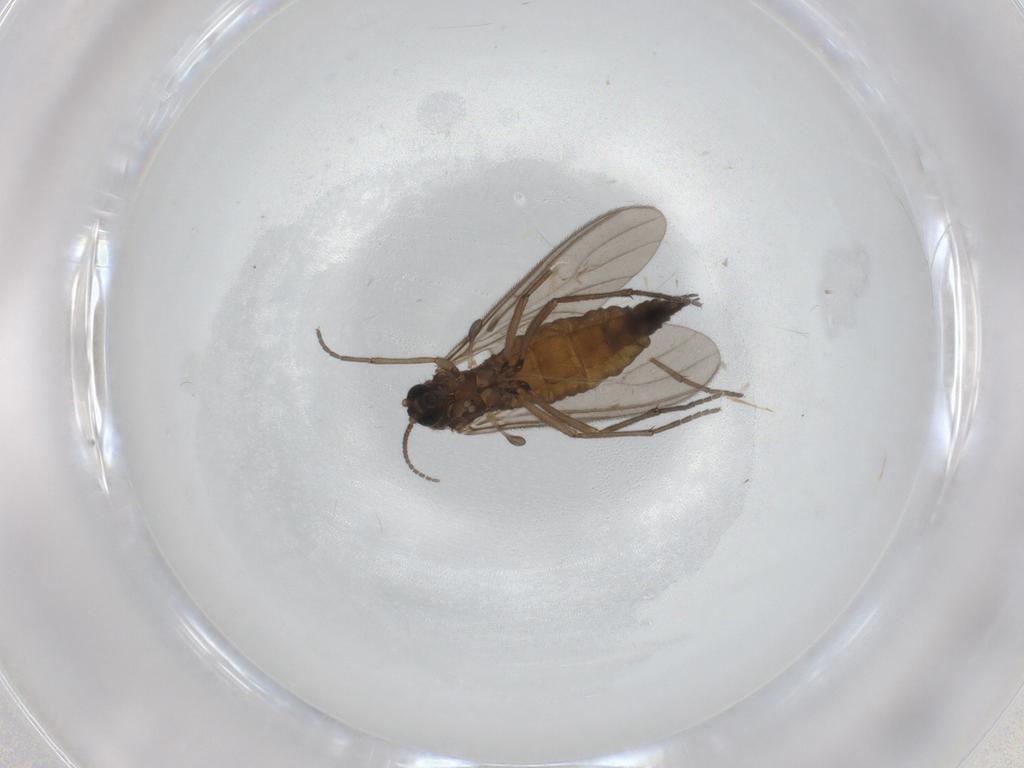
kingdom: Animalia
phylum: Arthropoda
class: Insecta
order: Diptera
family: Sciaridae
